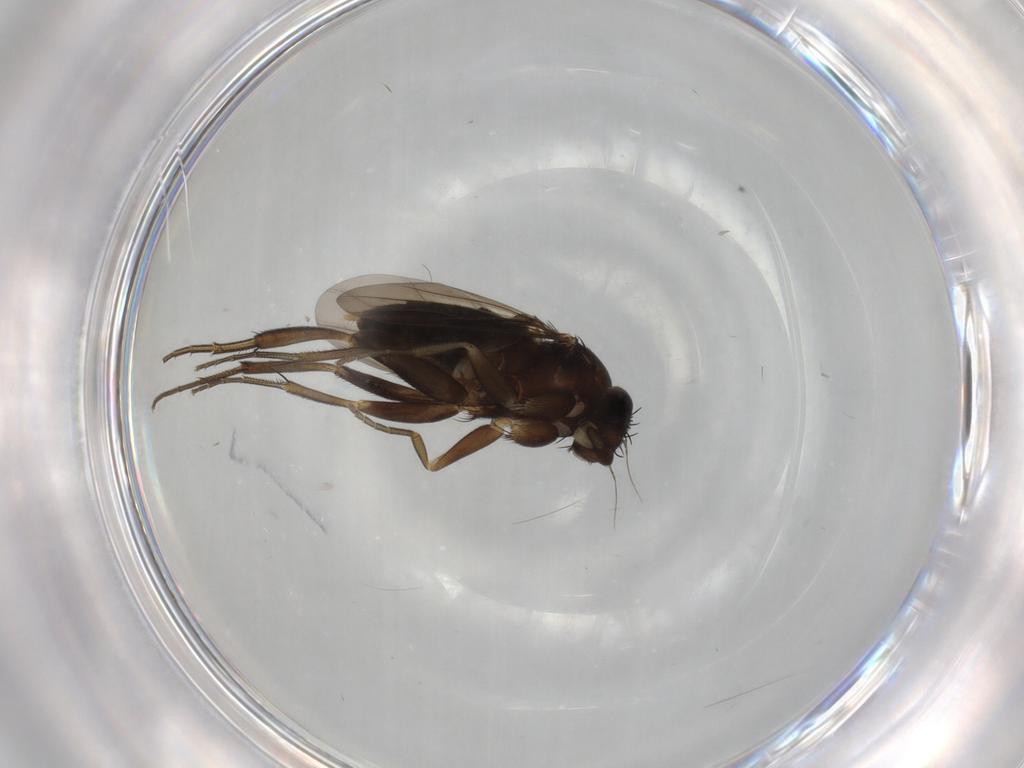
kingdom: Animalia
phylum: Arthropoda
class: Insecta
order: Diptera
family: Phoridae
